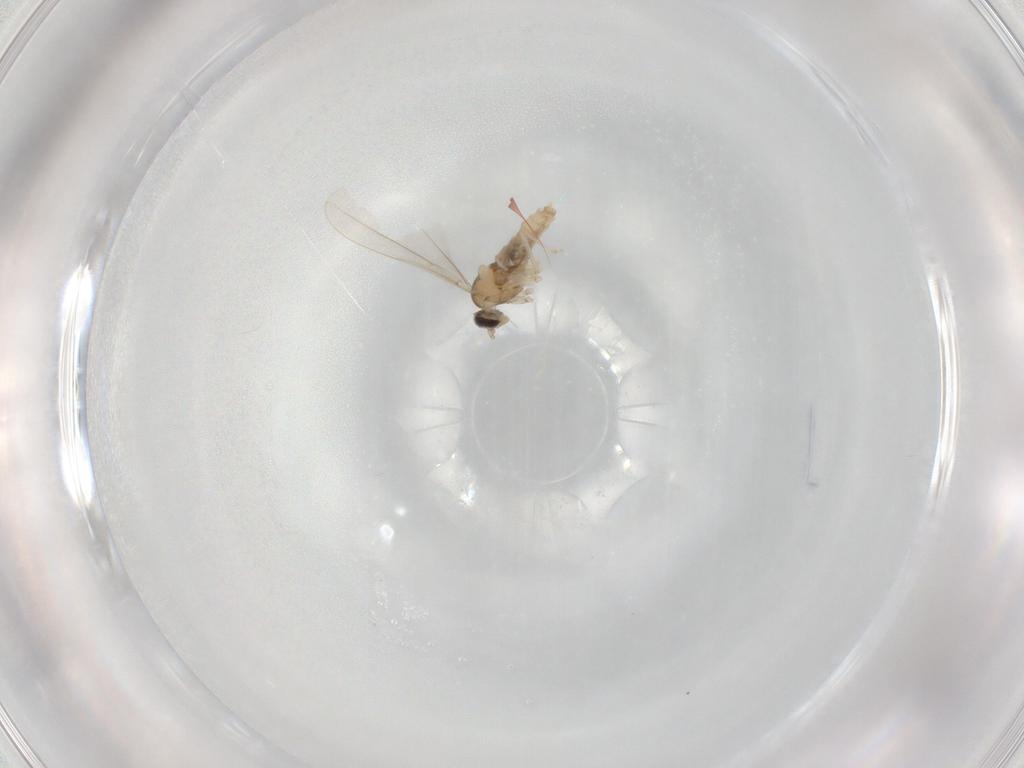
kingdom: Animalia
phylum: Arthropoda
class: Insecta
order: Diptera
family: Cecidomyiidae
